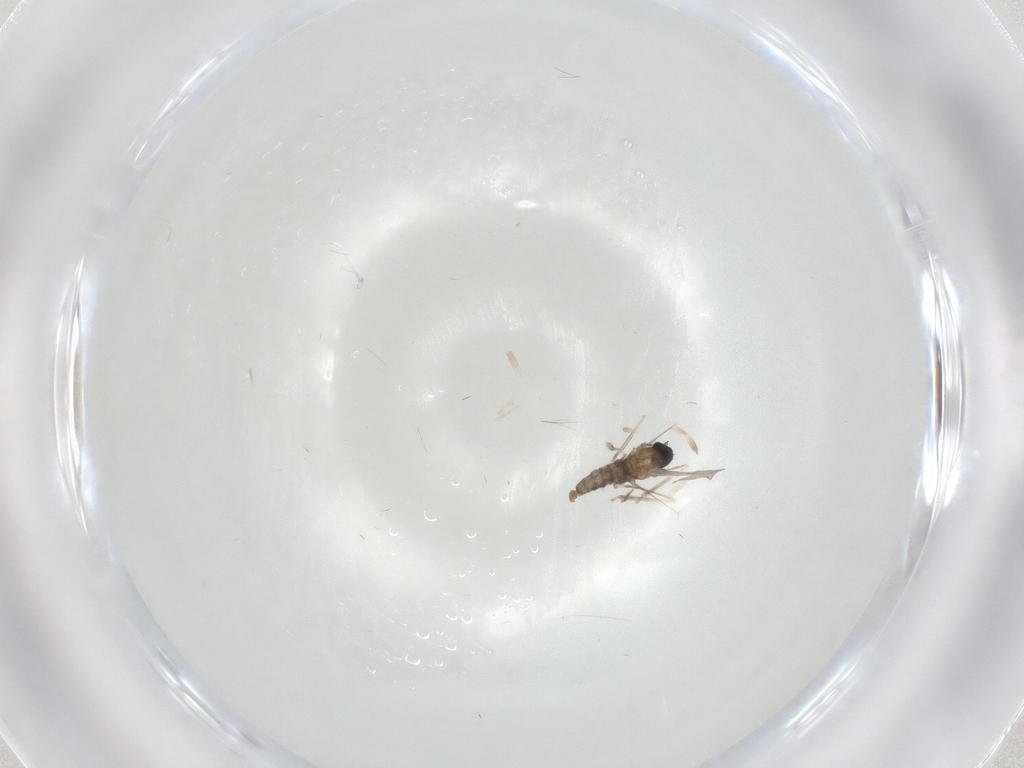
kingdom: Animalia
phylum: Arthropoda
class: Insecta
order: Diptera
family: Cecidomyiidae
